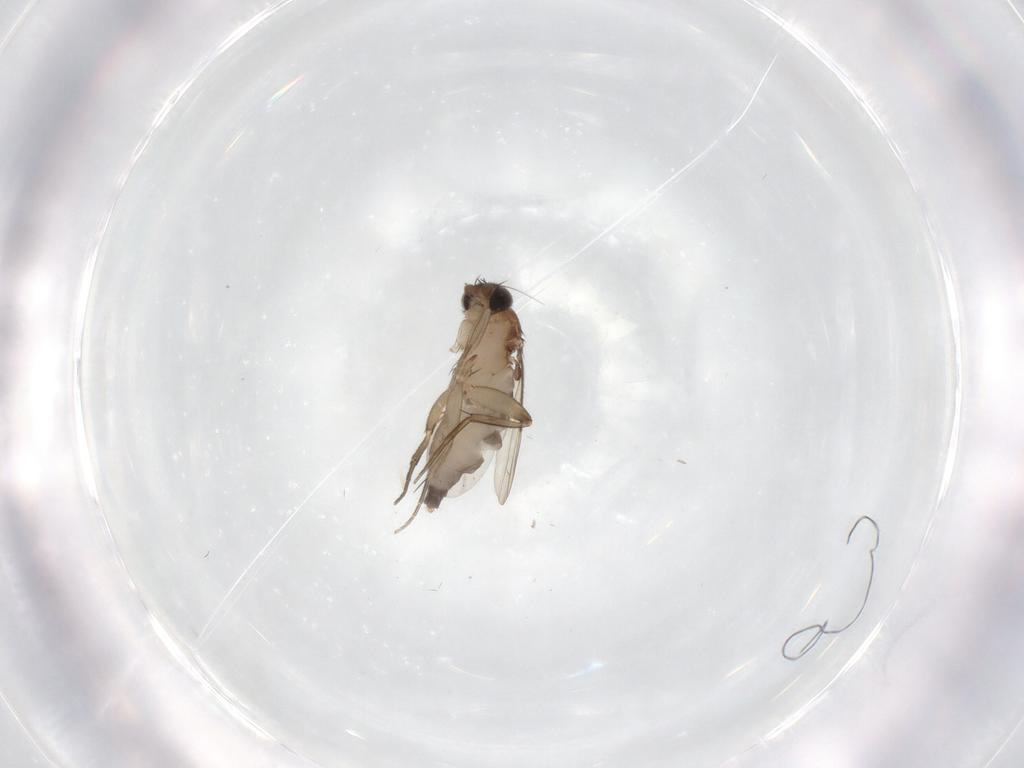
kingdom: Animalia
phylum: Arthropoda
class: Insecta
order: Diptera
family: Phoridae
